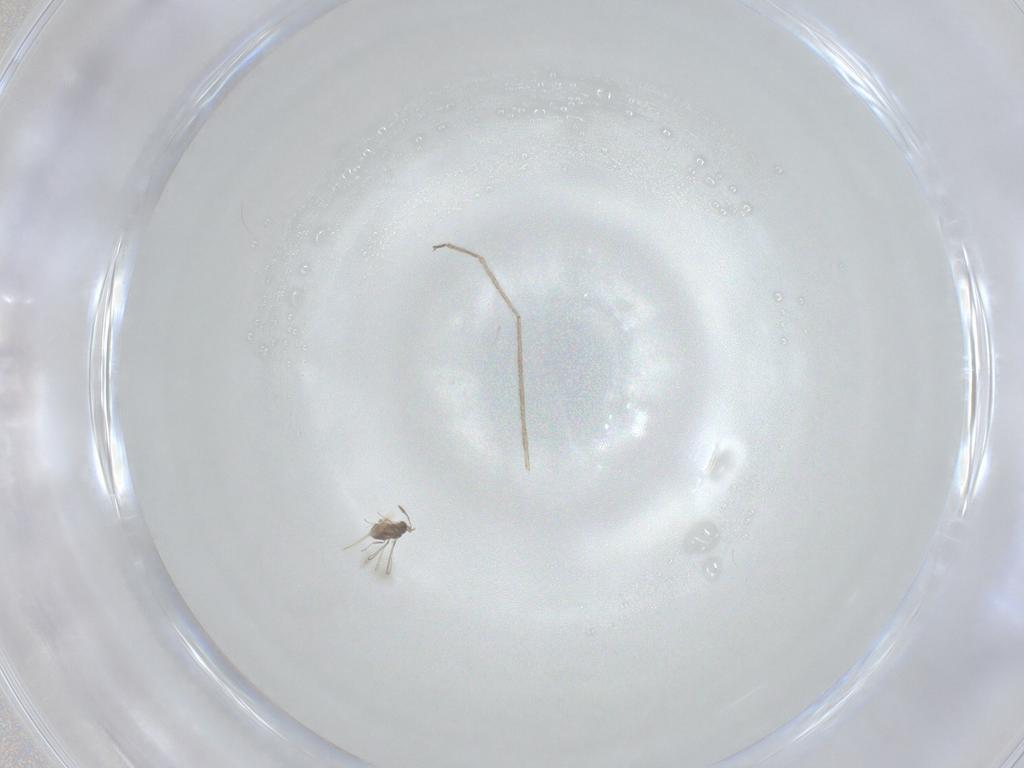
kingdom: Animalia
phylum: Arthropoda
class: Insecta
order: Hymenoptera
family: Mymaridae
